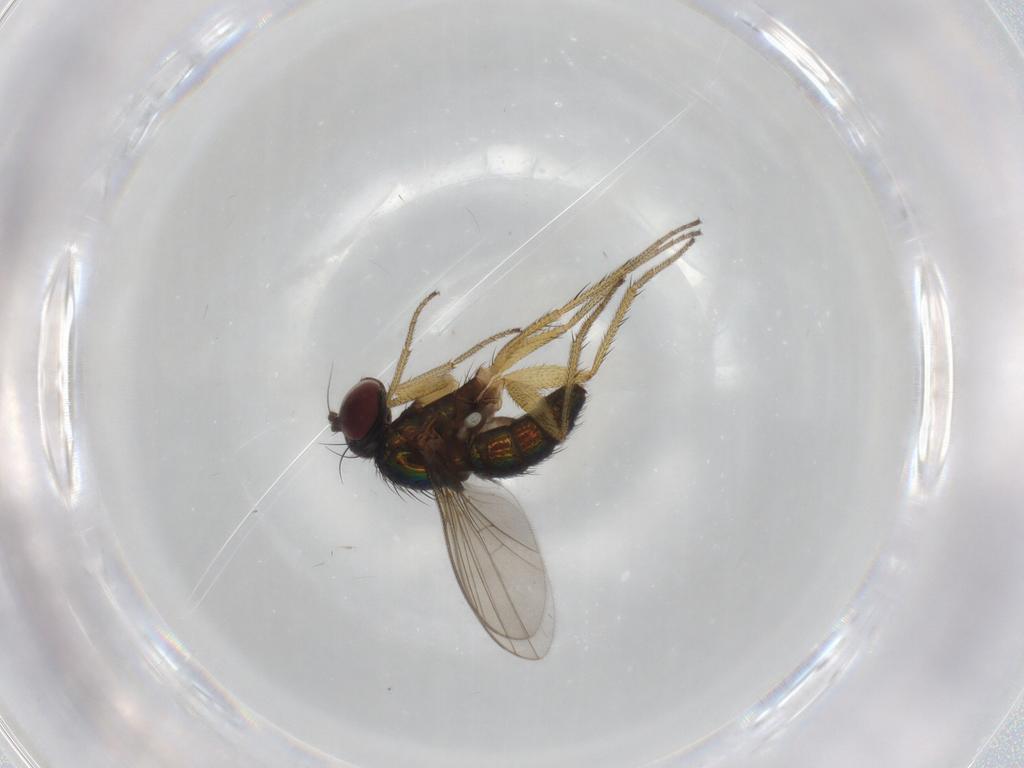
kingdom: Animalia
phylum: Arthropoda
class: Insecta
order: Diptera
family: Dolichopodidae
